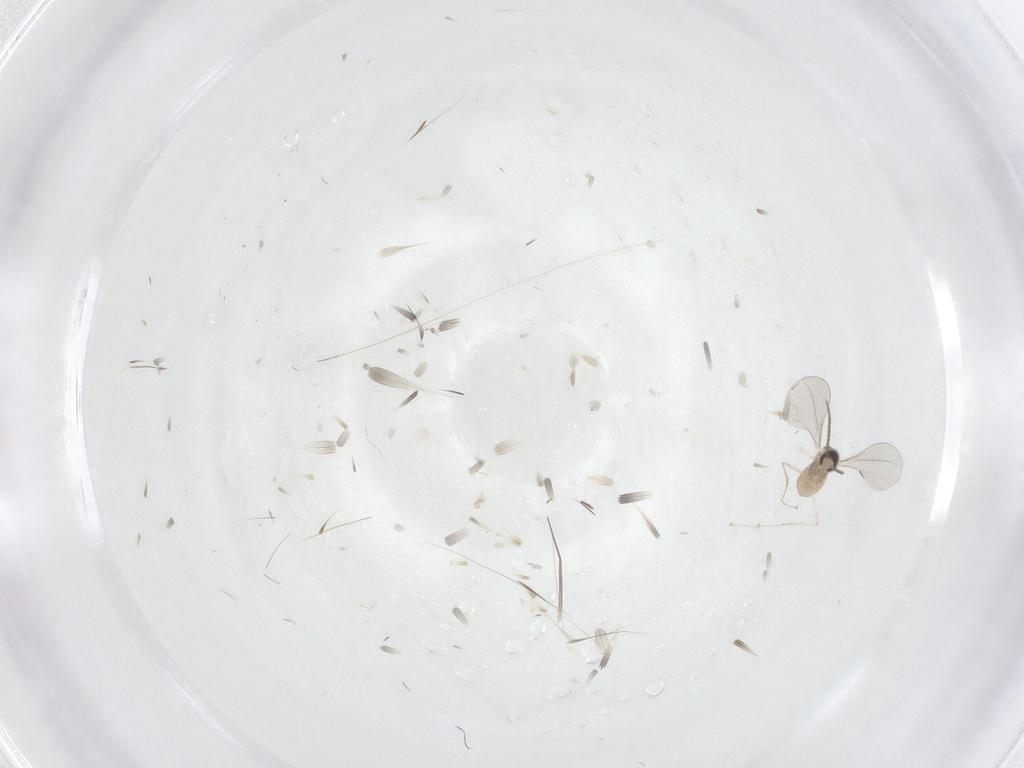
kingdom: Animalia
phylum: Arthropoda
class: Insecta
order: Diptera
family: Cecidomyiidae
